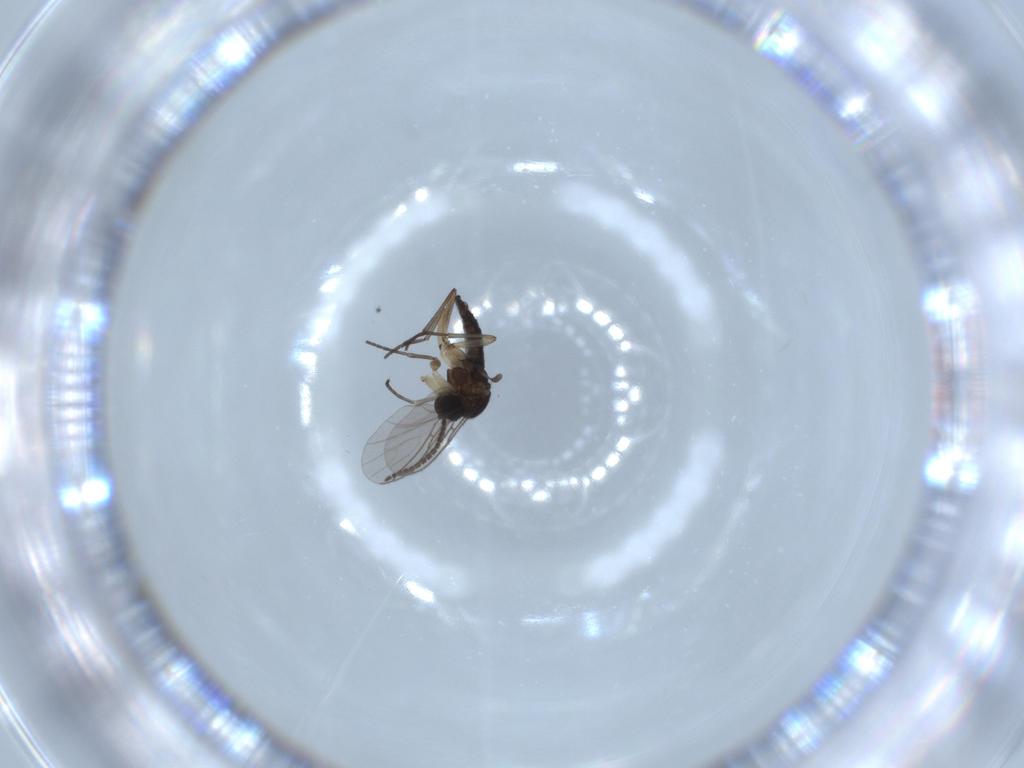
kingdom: Animalia
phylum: Arthropoda
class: Insecta
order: Diptera
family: Sciaridae
